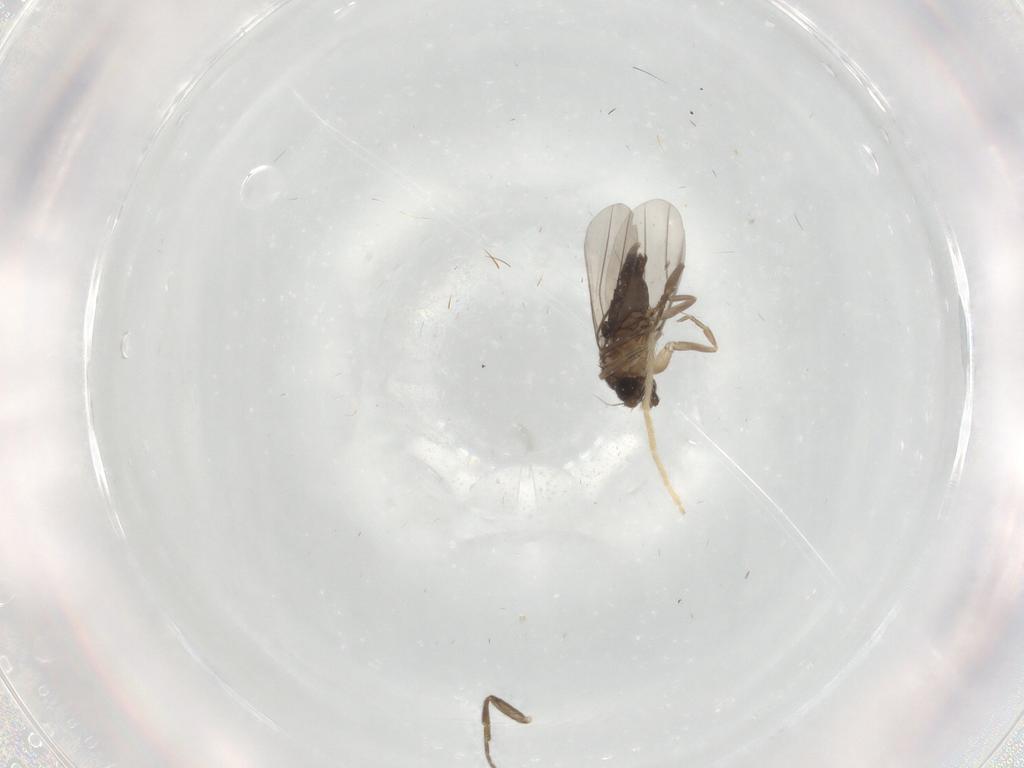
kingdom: Animalia
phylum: Arthropoda
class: Insecta
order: Diptera
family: Phoridae
